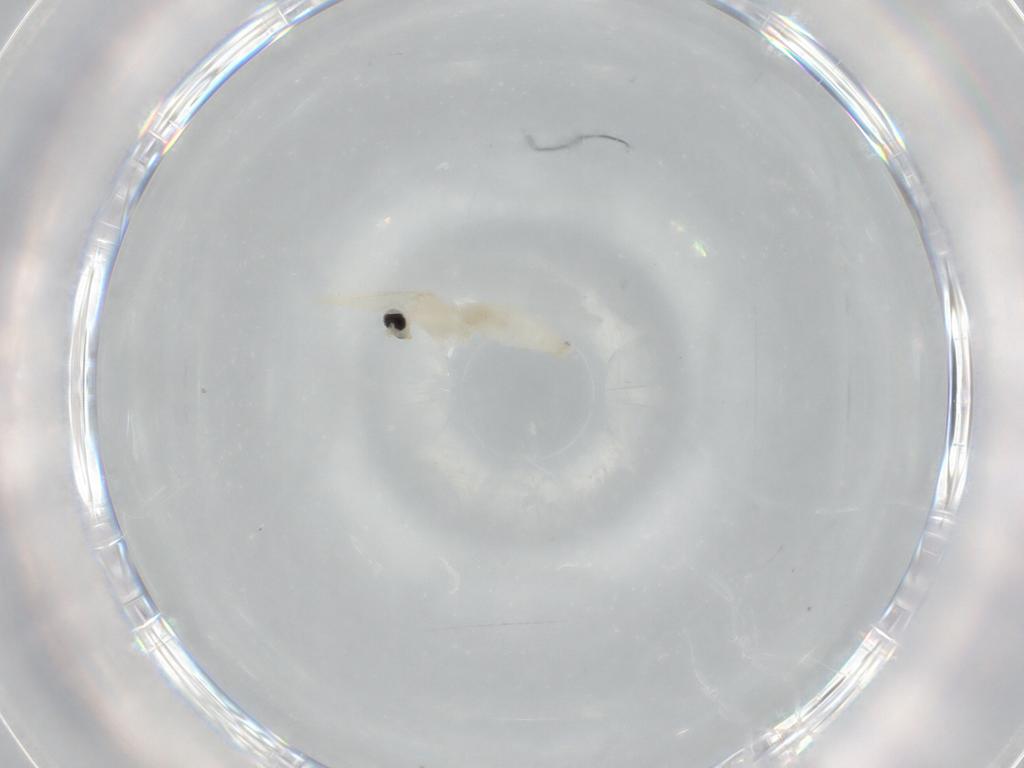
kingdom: Animalia
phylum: Arthropoda
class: Insecta
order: Diptera
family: Cecidomyiidae
